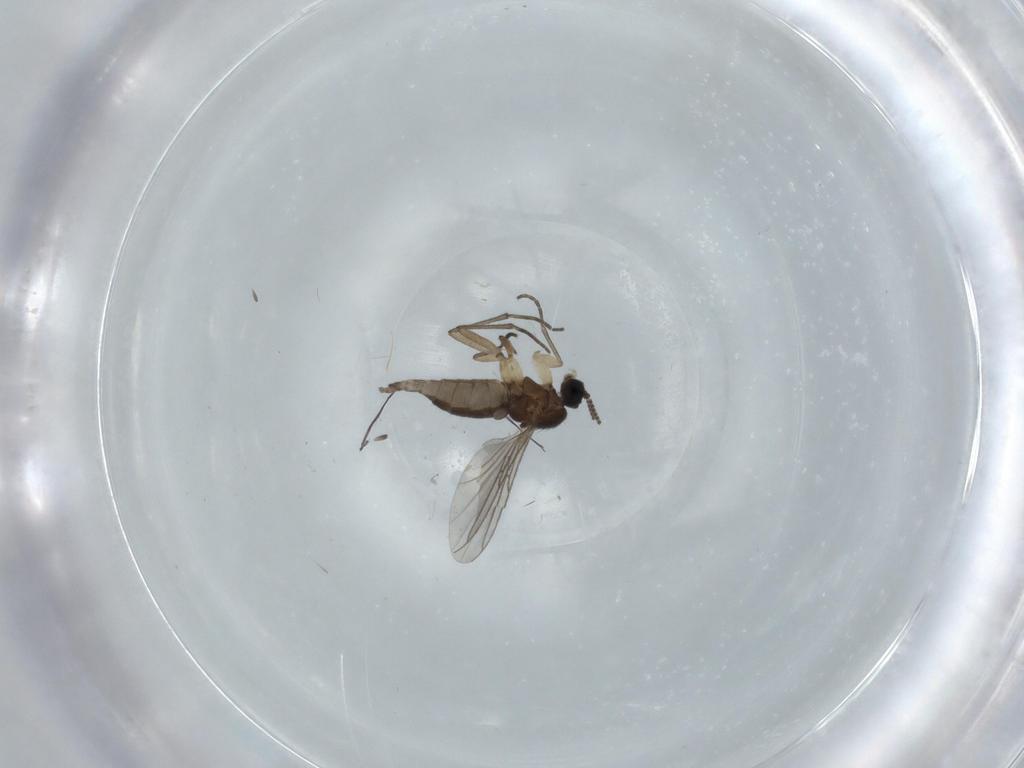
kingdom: Animalia
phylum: Arthropoda
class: Insecta
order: Diptera
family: Sciaridae
